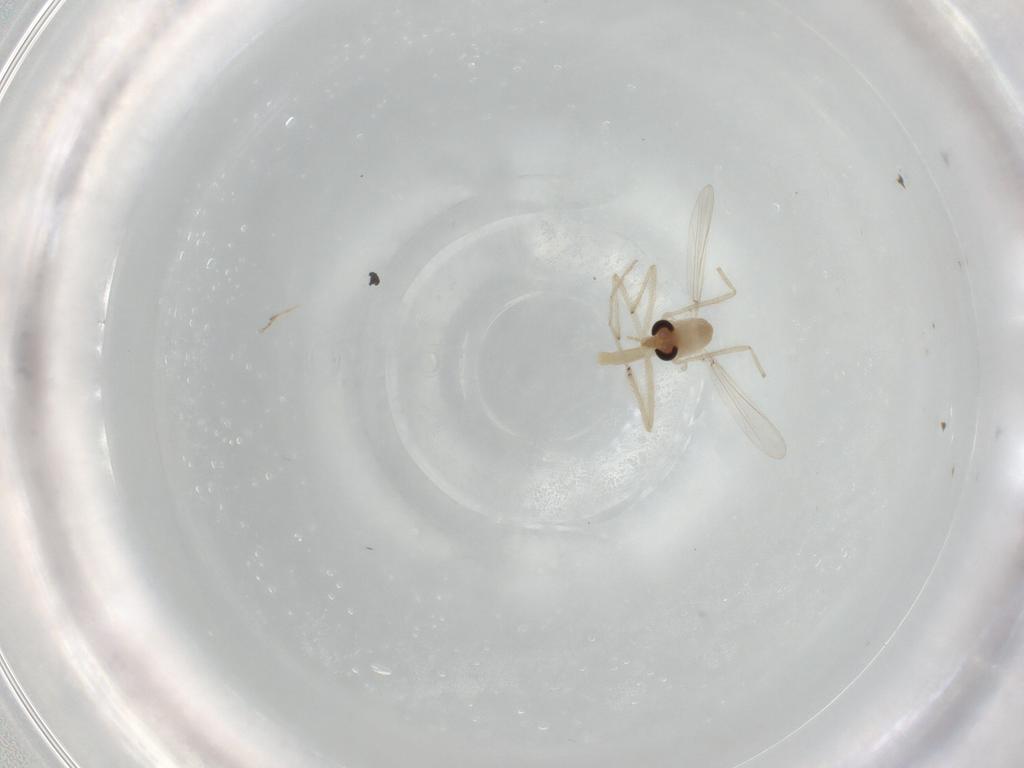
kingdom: Animalia
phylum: Arthropoda
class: Insecta
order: Diptera
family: Chironomidae
